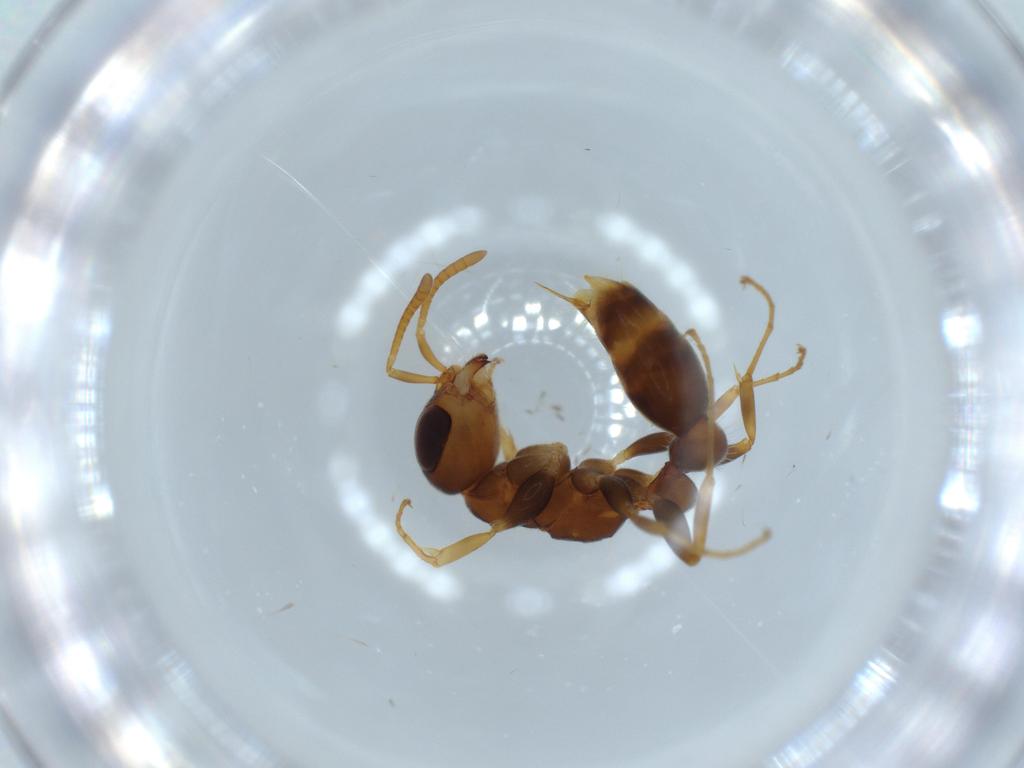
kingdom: Animalia
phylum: Arthropoda
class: Insecta
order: Hymenoptera
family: Formicidae
